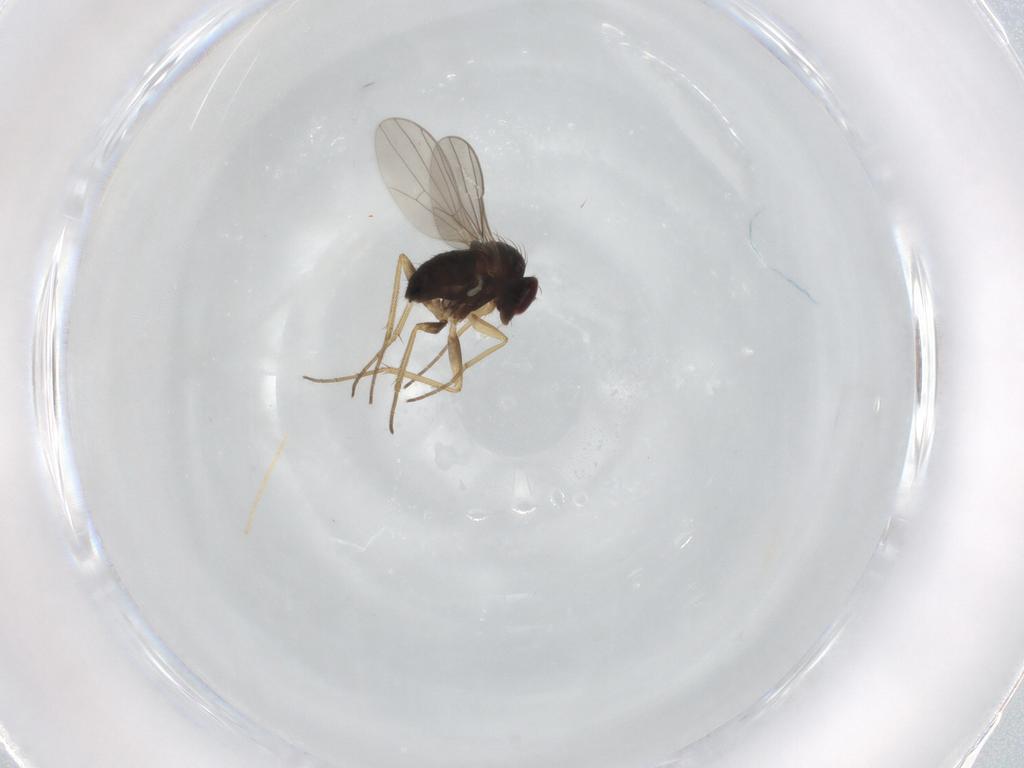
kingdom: Animalia
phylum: Arthropoda
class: Insecta
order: Diptera
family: Dolichopodidae
